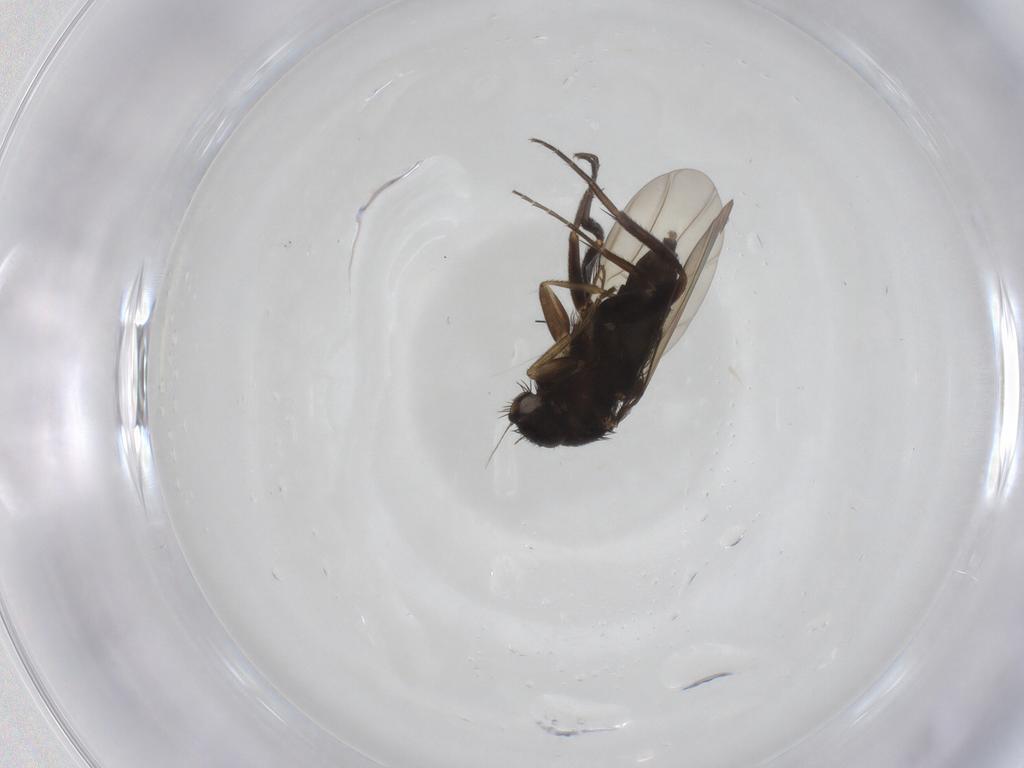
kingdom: Animalia
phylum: Arthropoda
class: Insecta
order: Diptera
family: Phoridae
